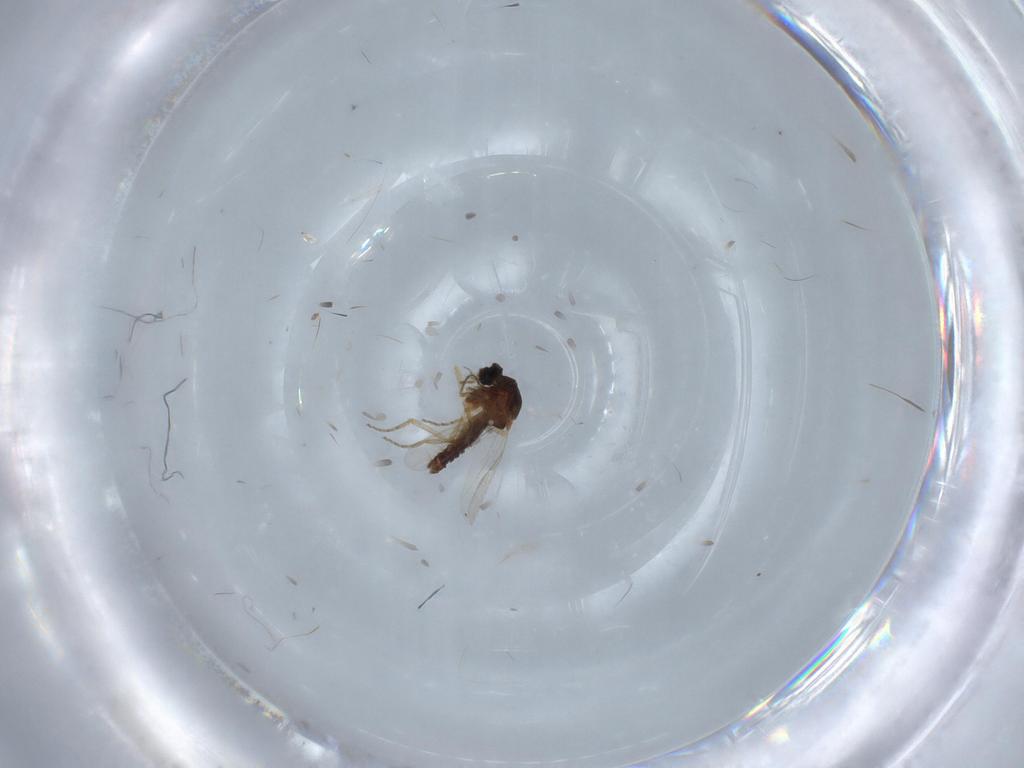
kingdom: Animalia
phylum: Arthropoda
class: Insecta
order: Diptera
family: Ceratopogonidae
